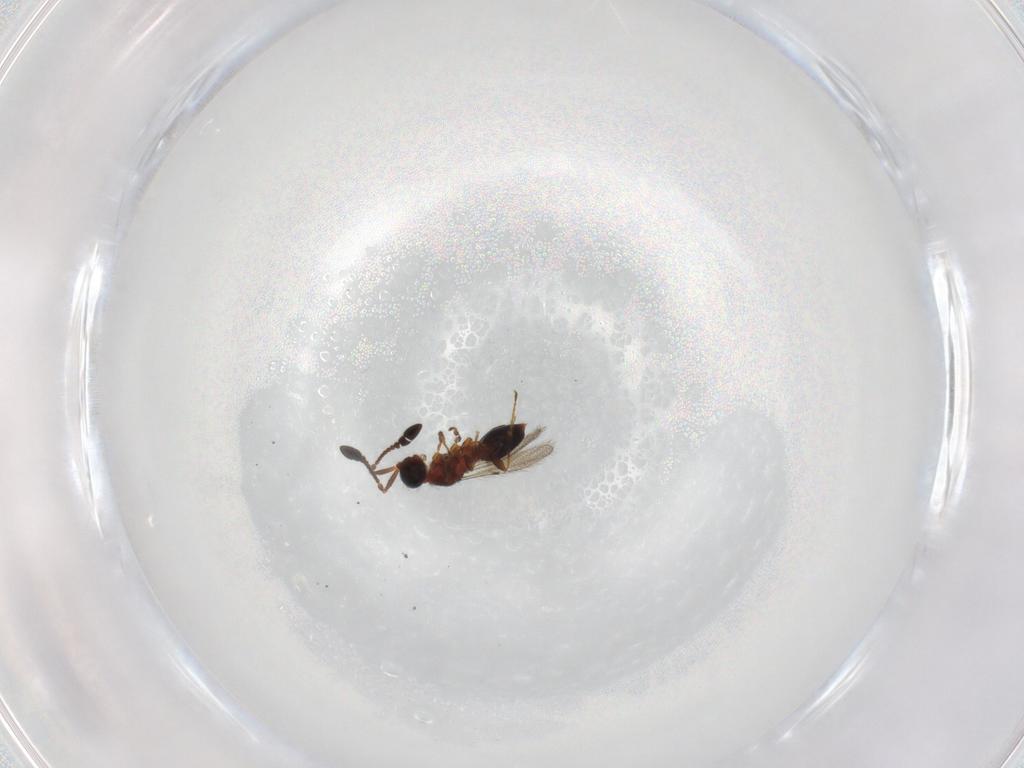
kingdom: Animalia
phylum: Arthropoda
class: Insecta
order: Hymenoptera
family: Diapriidae
